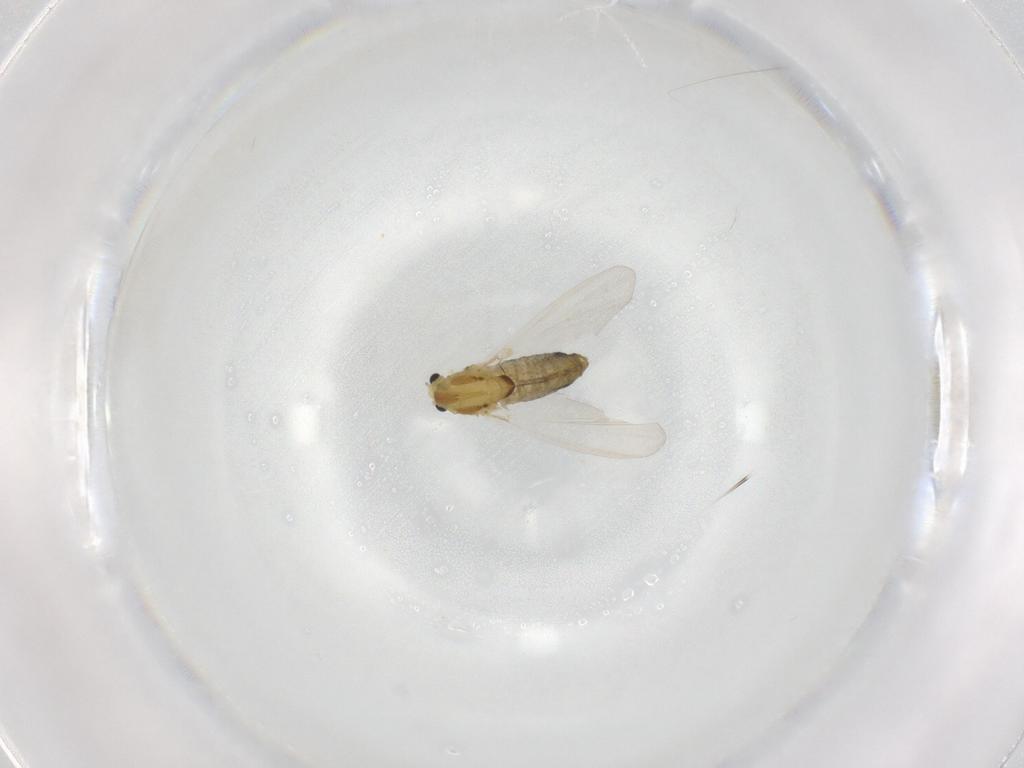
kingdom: Animalia
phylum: Arthropoda
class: Insecta
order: Diptera
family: Chironomidae
